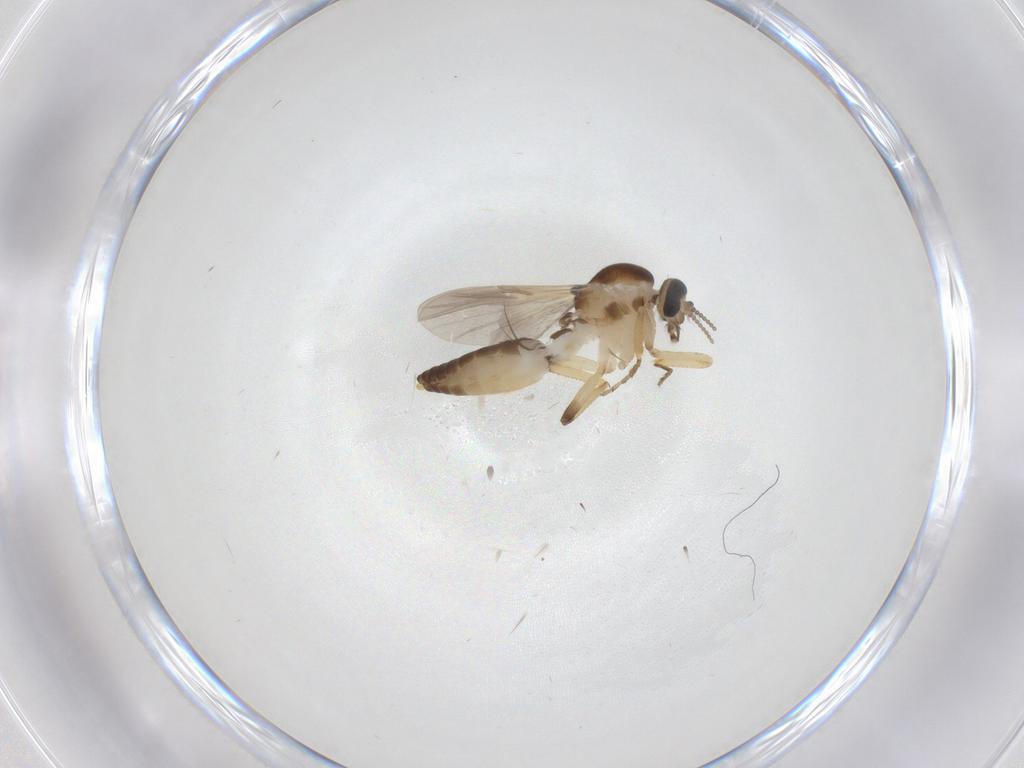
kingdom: Animalia
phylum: Arthropoda
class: Insecta
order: Diptera
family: Ceratopogonidae
